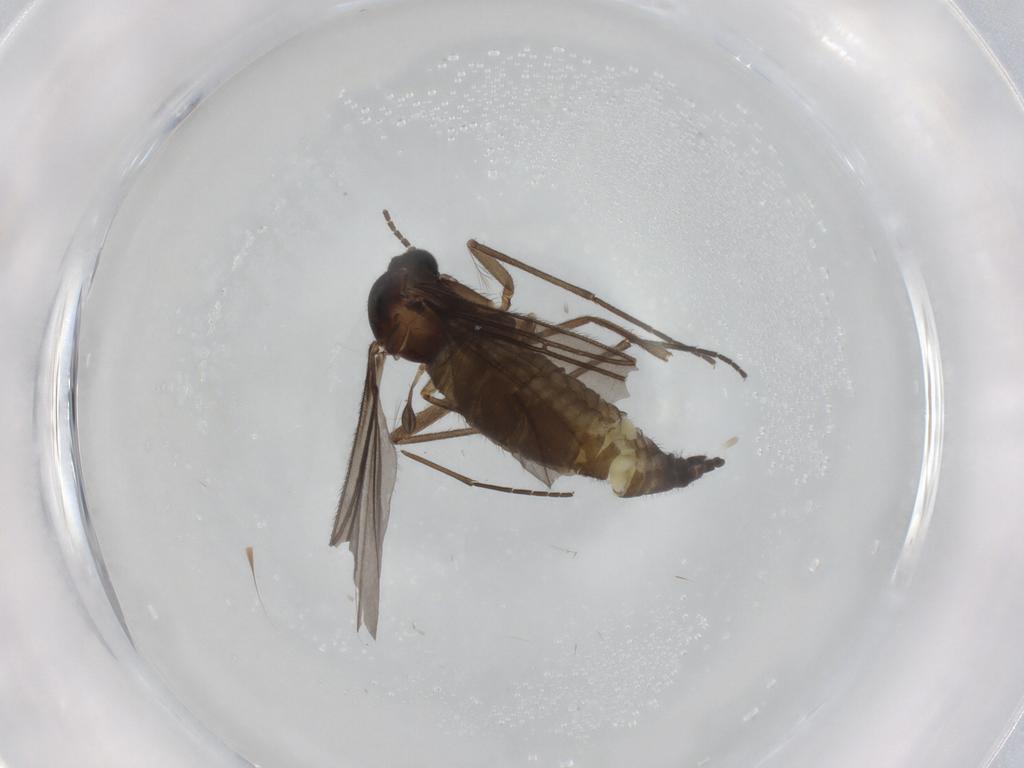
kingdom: Animalia
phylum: Arthropoda
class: Insecta
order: Diptera
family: Sciaridae
